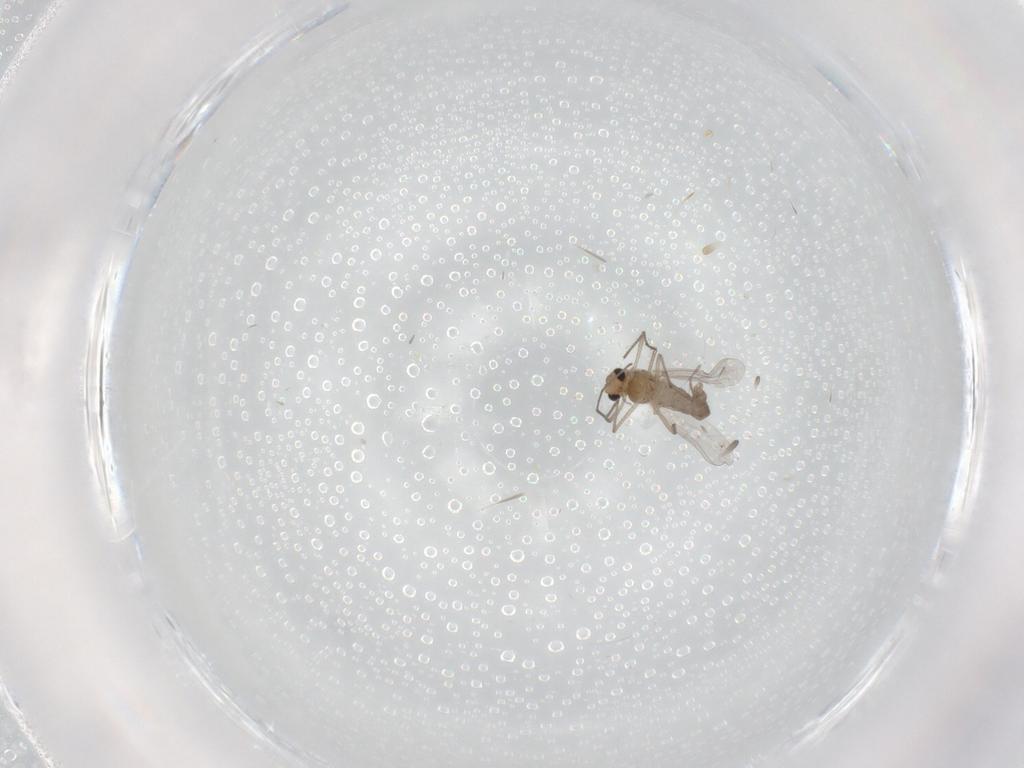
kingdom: Animalia
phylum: Arthropoda
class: Insecta
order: Diptera
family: Chironomidae
